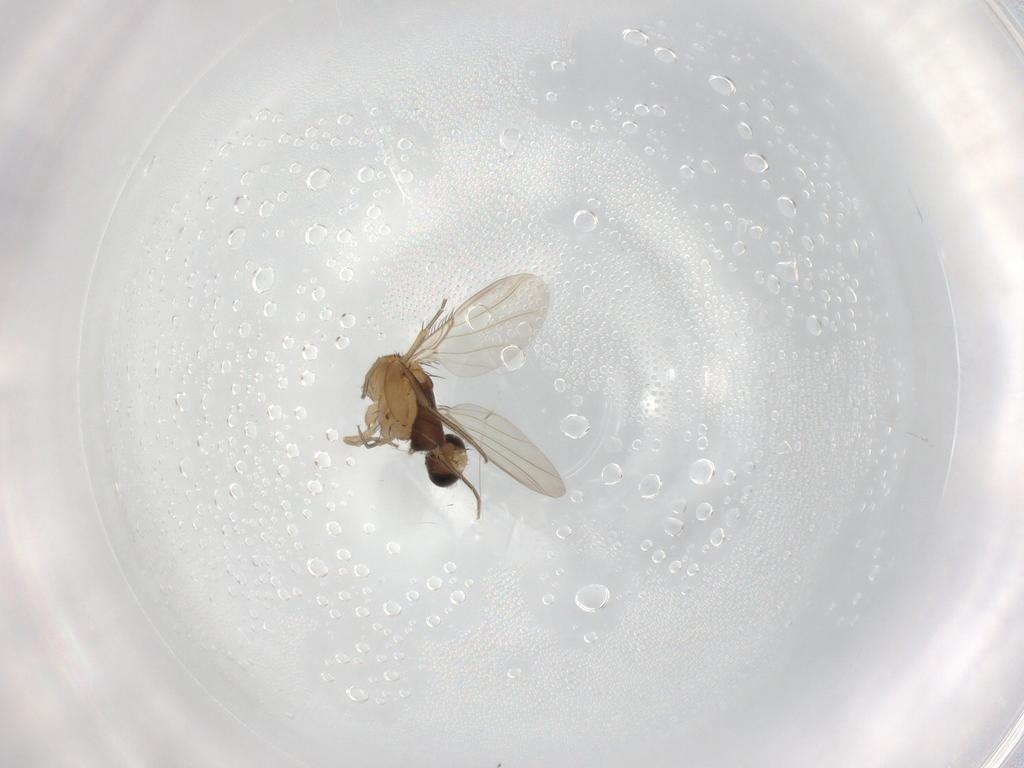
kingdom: Animalia
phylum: Arthropoda
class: Insecta
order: Diptera
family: Phoridae
